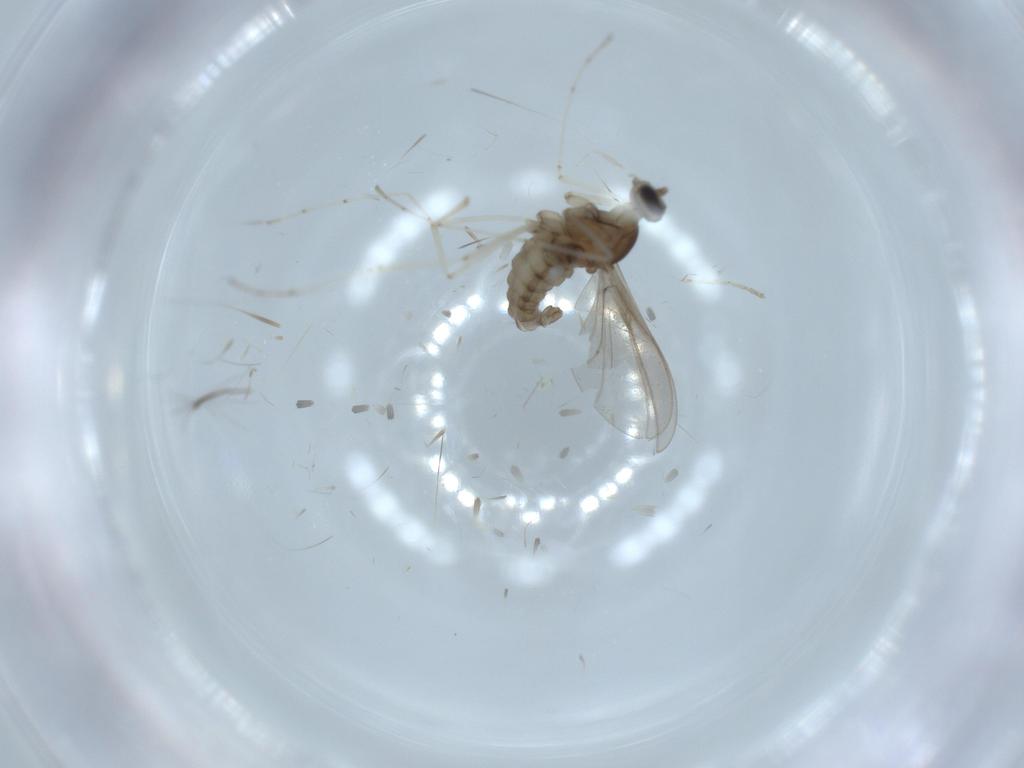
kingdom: Animalia
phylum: Arthropoda
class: Insecta
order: Diptera
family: Cecidomyiidae
